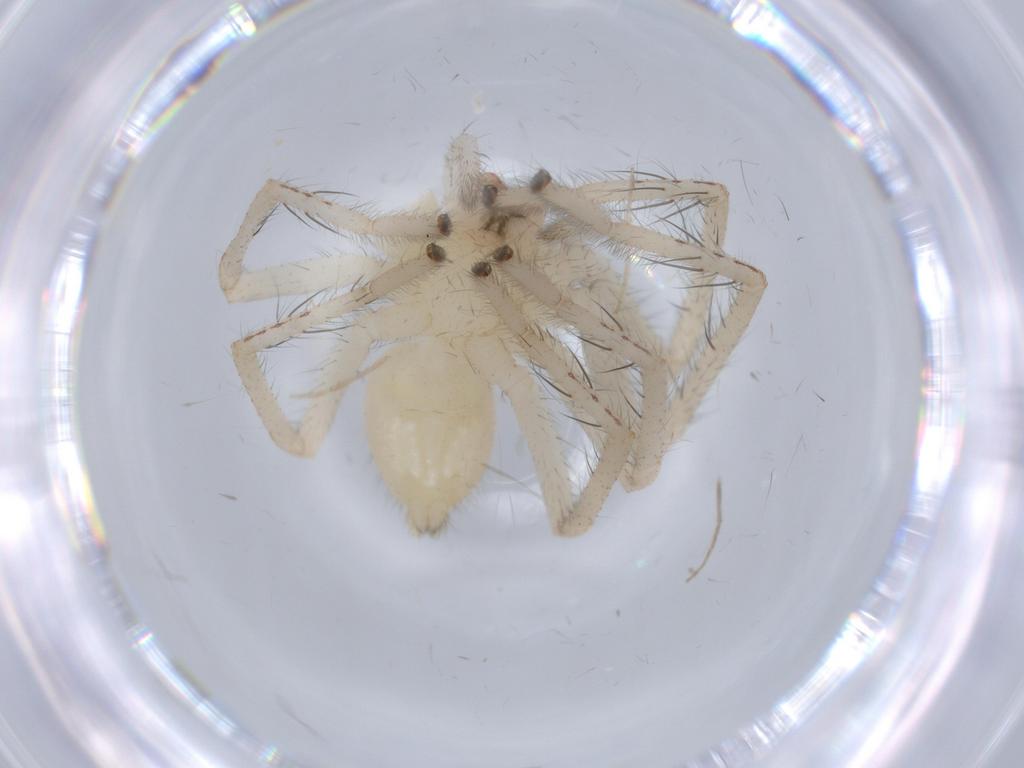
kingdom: Animalia
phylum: Arthropoda
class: Arachnida
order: Araneae
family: Sparassidae
